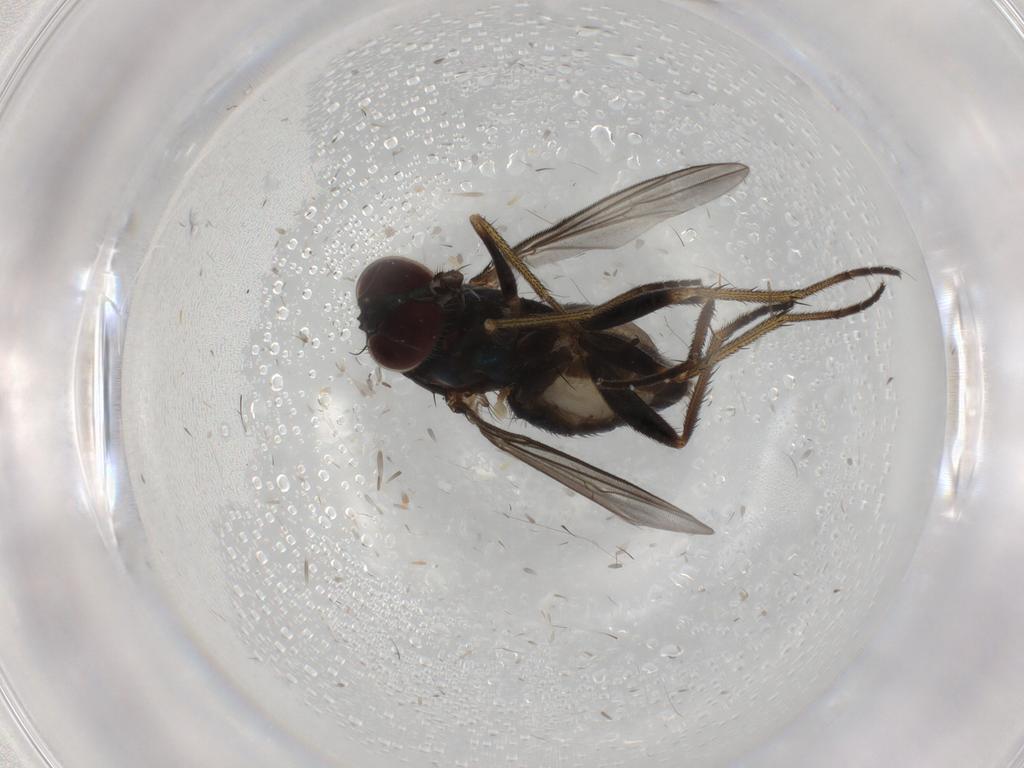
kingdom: Animalia
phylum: Arthropoda
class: Insecta
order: Diptera
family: Dolichopodidae
